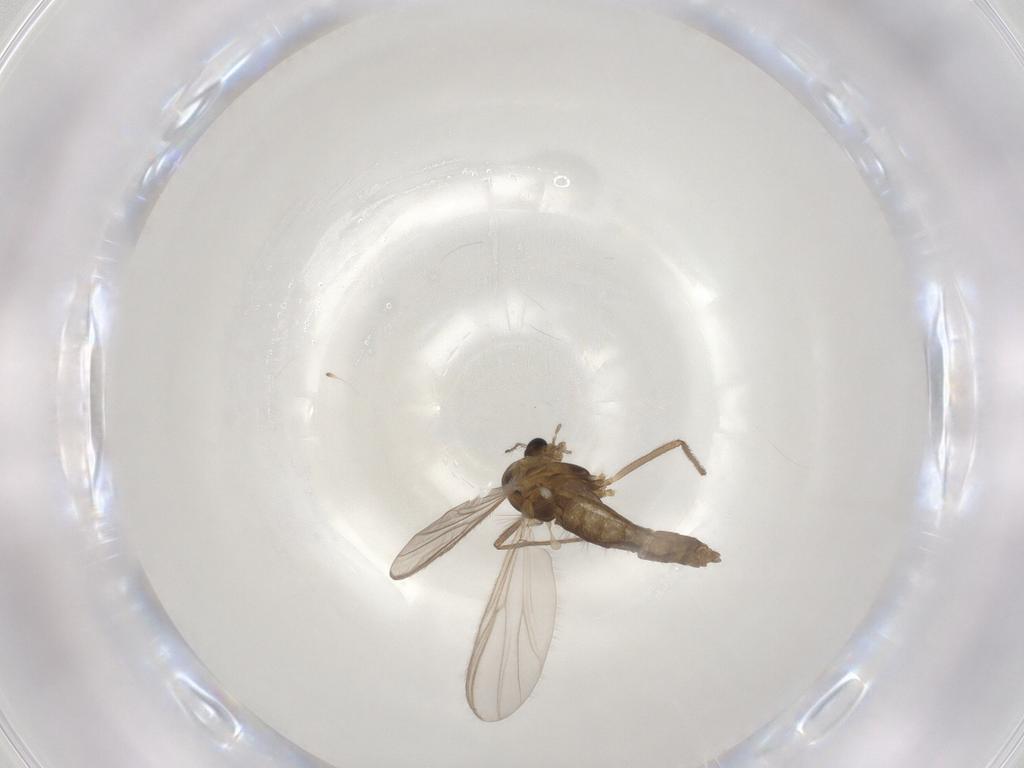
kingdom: Animalia
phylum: Arthropoda
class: Insecta
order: Diptera
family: Chironomidae
